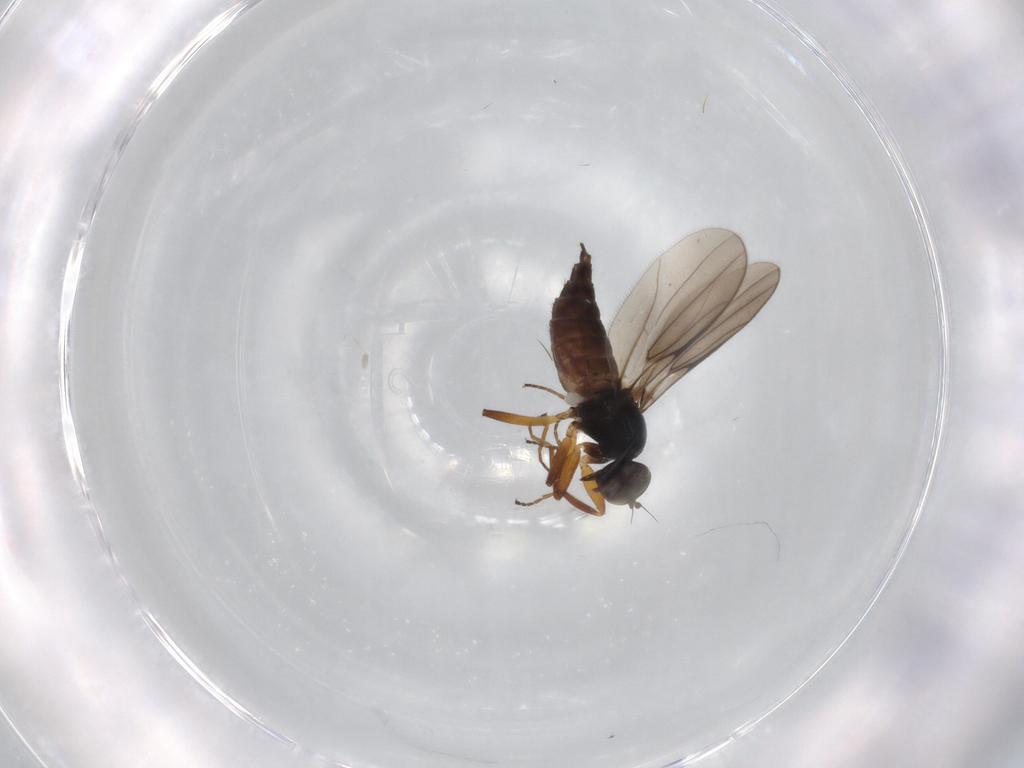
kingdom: Animalia
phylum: Arthropoda
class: Insecta
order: Diptera
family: Hybotidae
